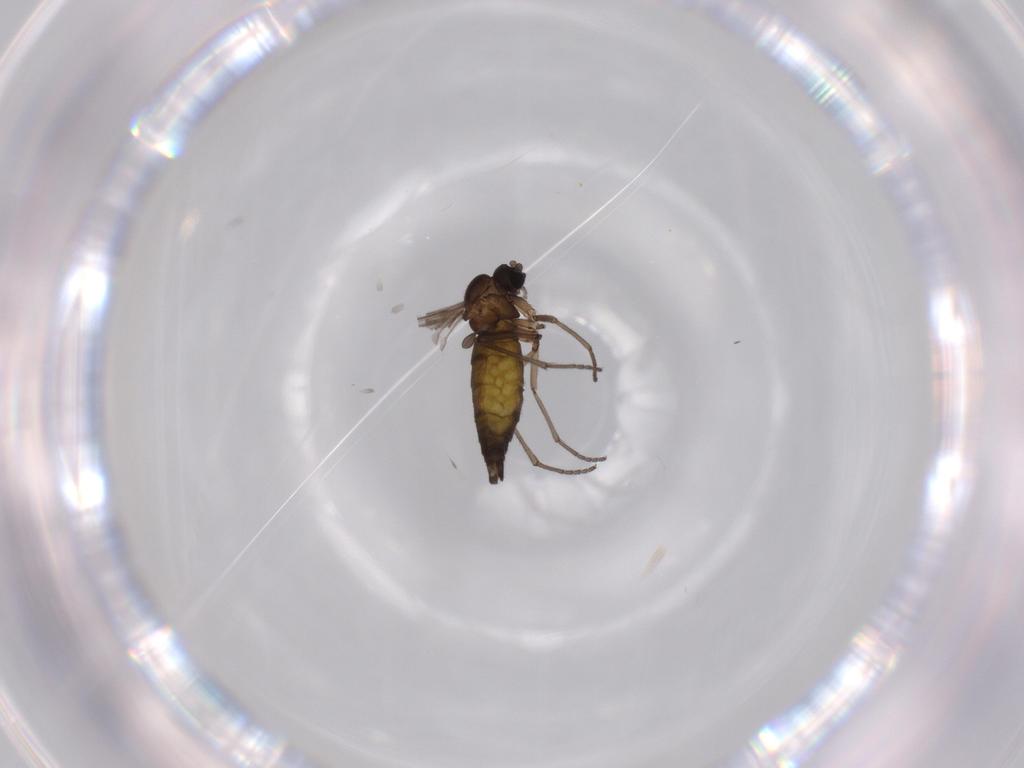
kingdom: Animalia
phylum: Arthropoda
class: Insecta
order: Diptera
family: Sciaridae
